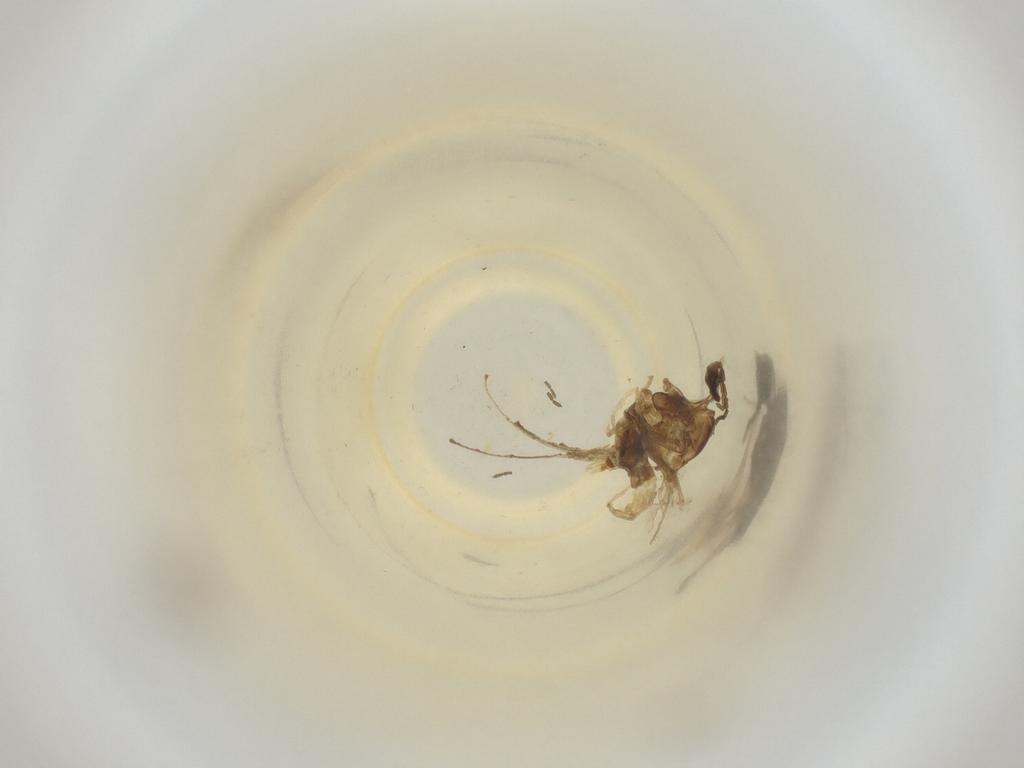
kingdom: Animalia
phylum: Arthropoda
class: Insecta
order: Diptera
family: Cecidomyiidae
